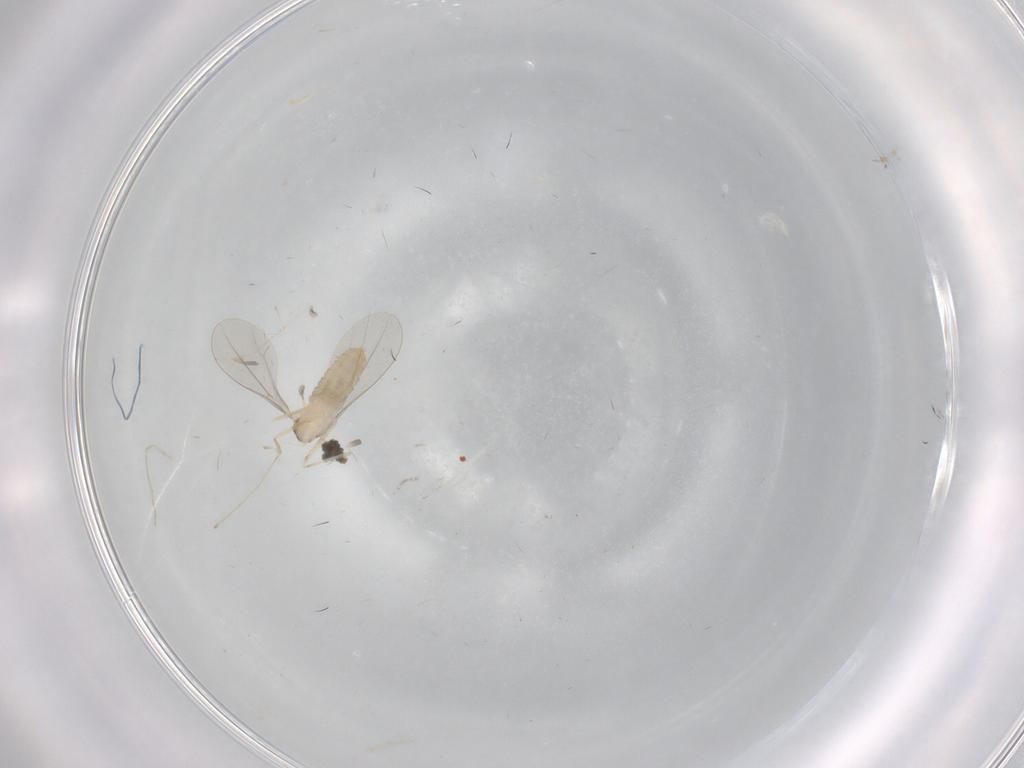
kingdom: Animalia
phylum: Arthropoda
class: Insecta
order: Diptera
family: Cecidomyiidae
